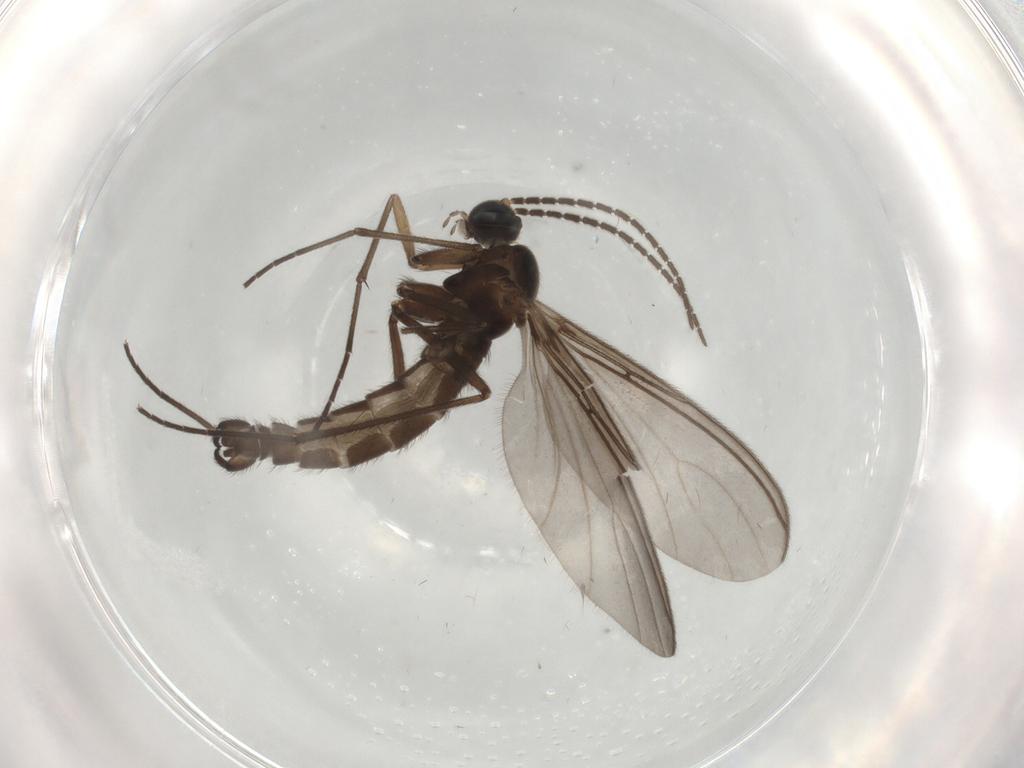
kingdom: Animalia
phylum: Arthropoda
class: Insecta
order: Diptera
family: Sciaridae
